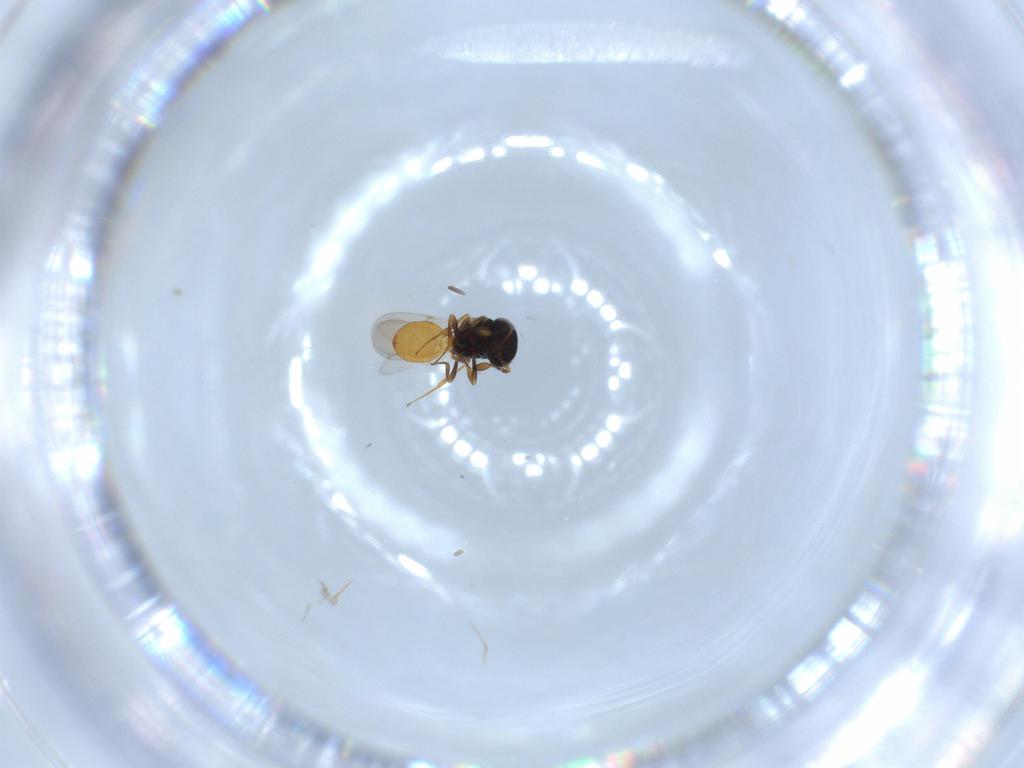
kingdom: Animalia
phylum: Arthropoda
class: Insecta
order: Hymenoptera
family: Scelionidae
